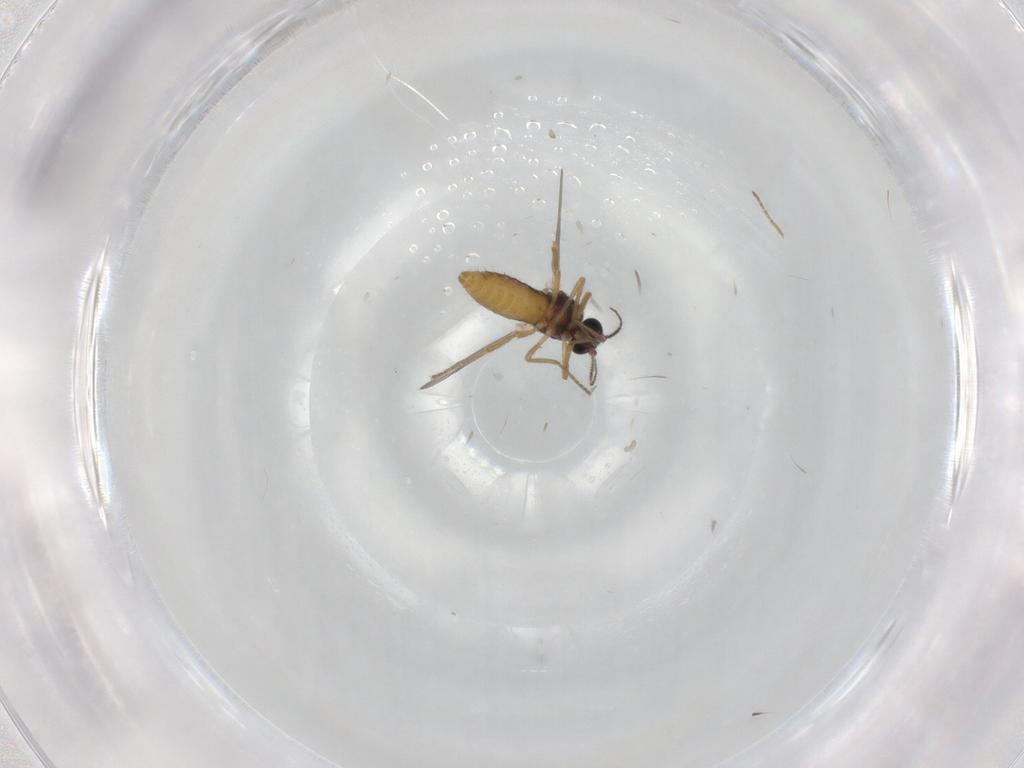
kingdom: Animalia
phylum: Arthropoda
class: Insecta
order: Diptera
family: Ceratopogonidae
